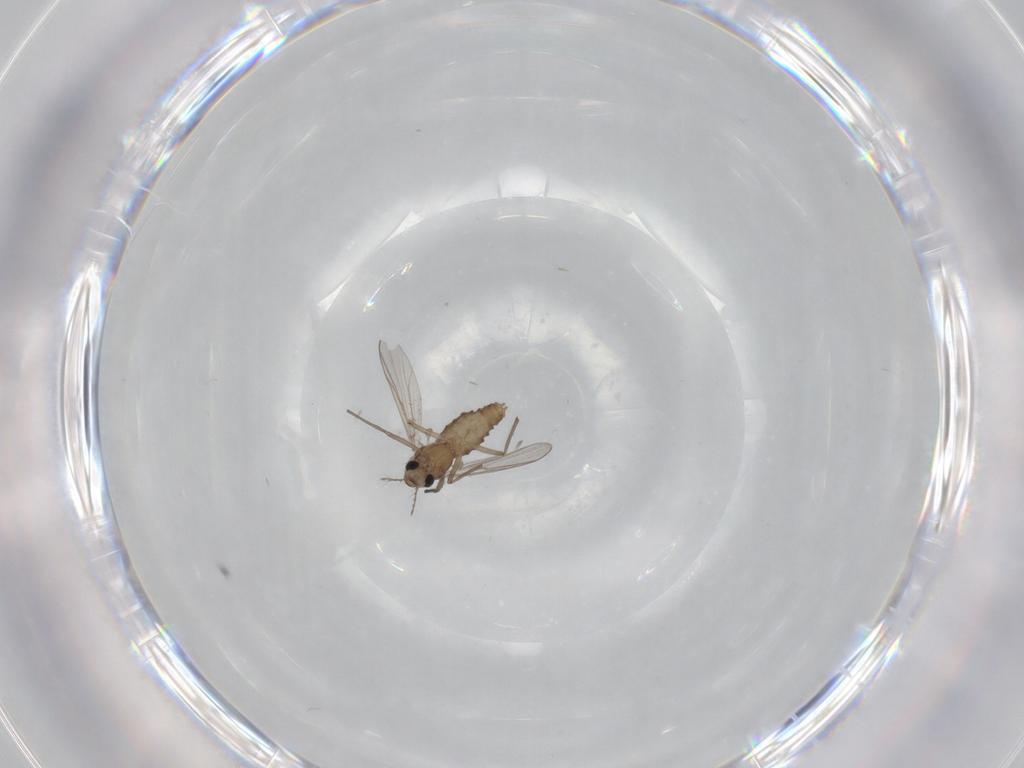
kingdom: Animalia
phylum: Arthropoda
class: Insecta
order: Diptera
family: Chironomidae
